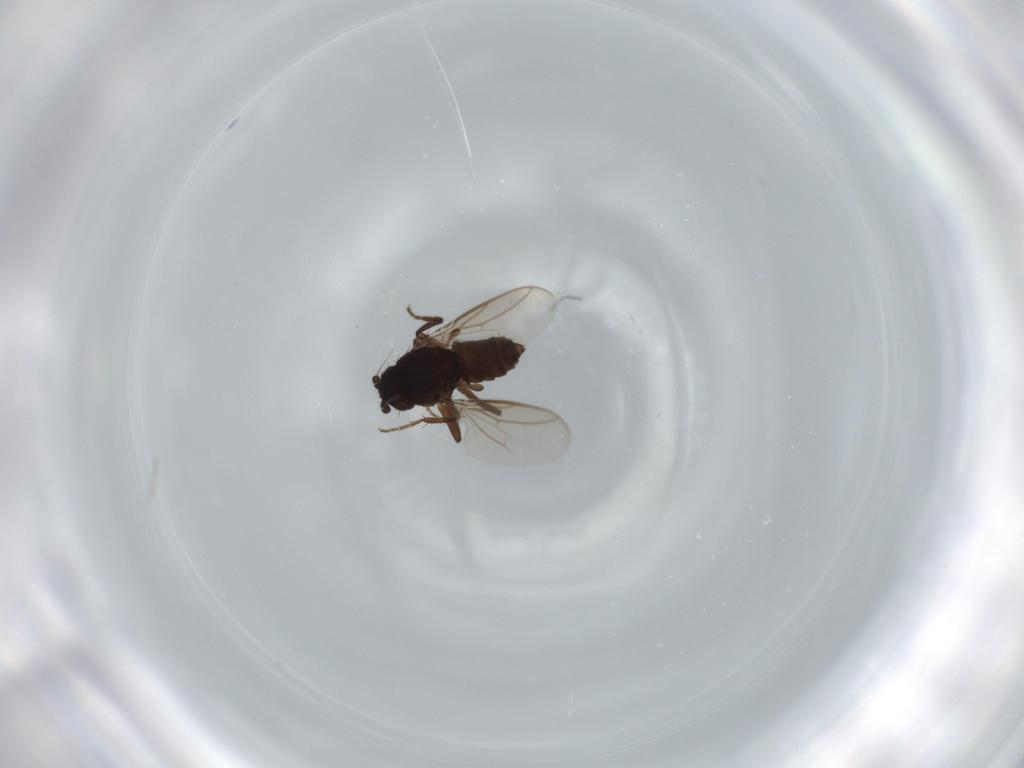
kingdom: Animalia
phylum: Arthropoda
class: Insecta
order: Diptera
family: Sphaeroceridae
